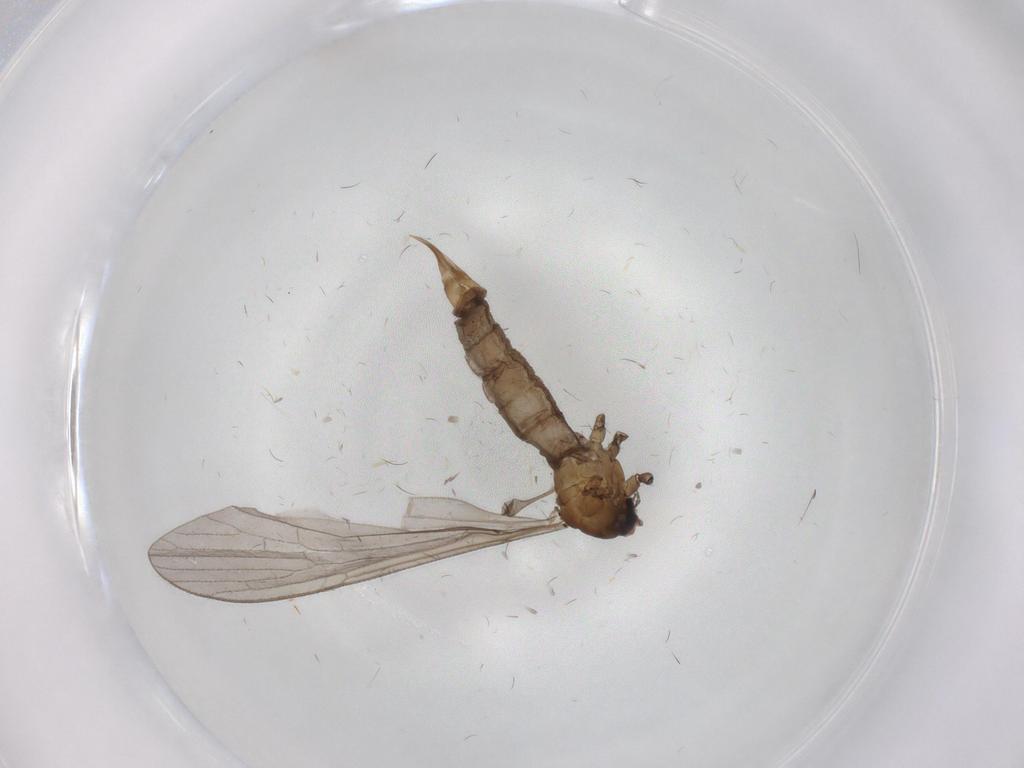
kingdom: Animalia
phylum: Arthropoda
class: Insecta
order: Diptera
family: Limoniidae
